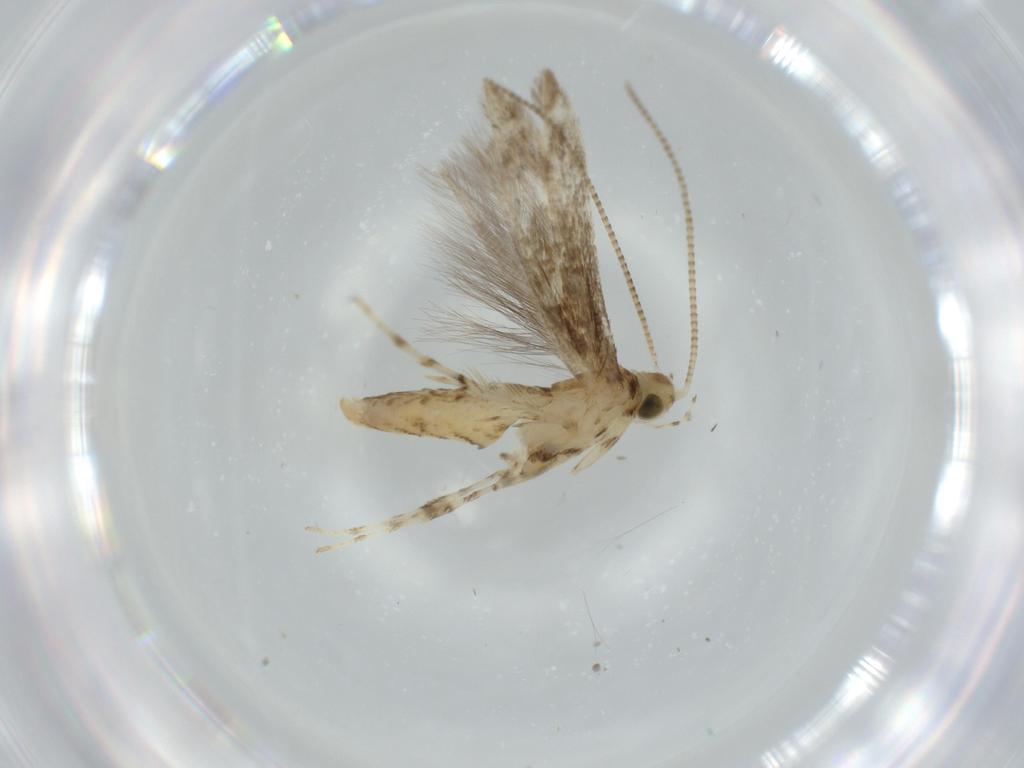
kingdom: Animalia
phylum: Arthropoda
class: Insecta
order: Lepidoptera
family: Gracillariidae
